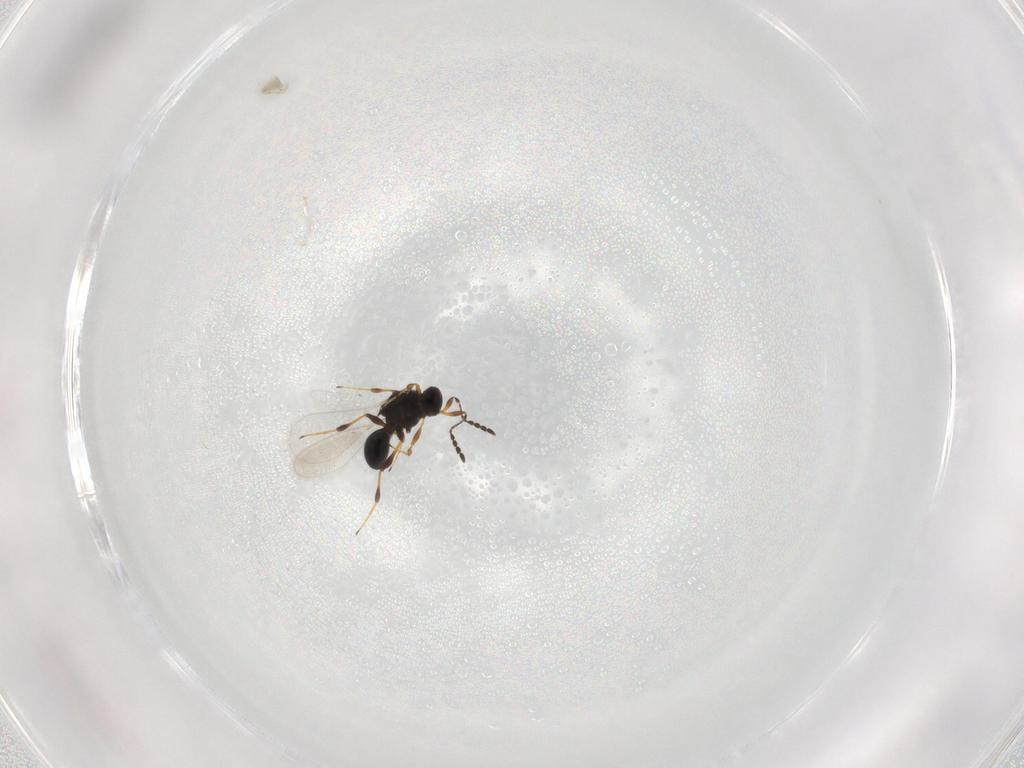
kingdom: Animalia
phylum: Arthropoda
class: Insecta
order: Hymenoptera
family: Platygastridae
